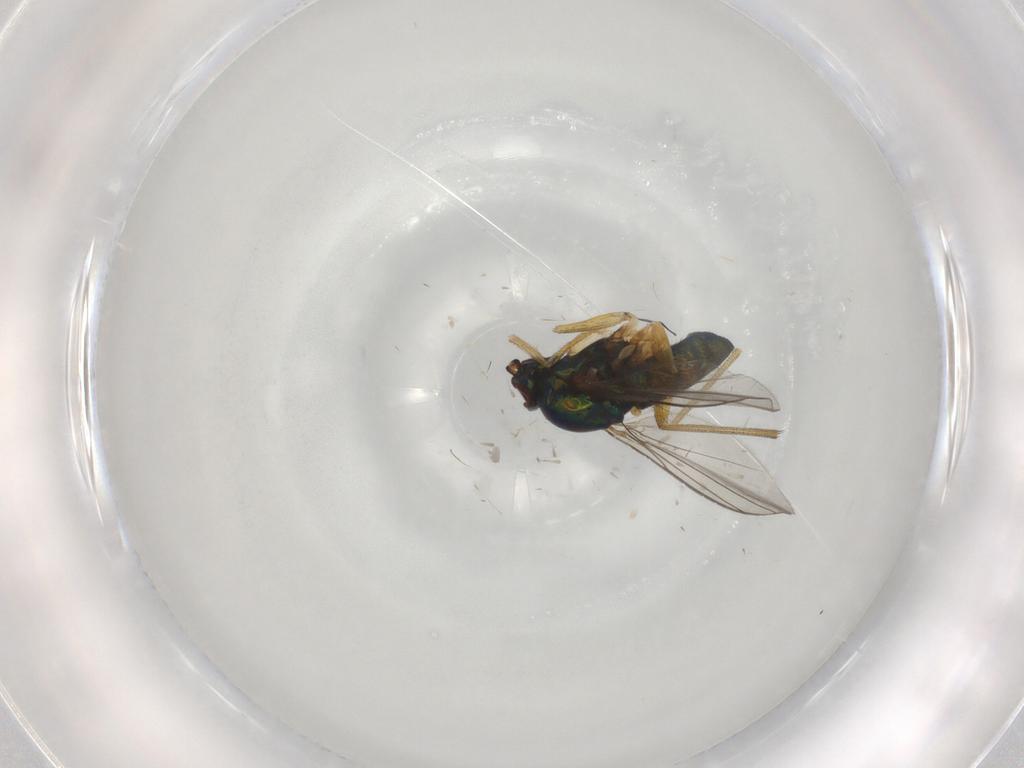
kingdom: Animalia
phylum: Arthropoda
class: Insecta
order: Diptera
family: Dolichopodidae
